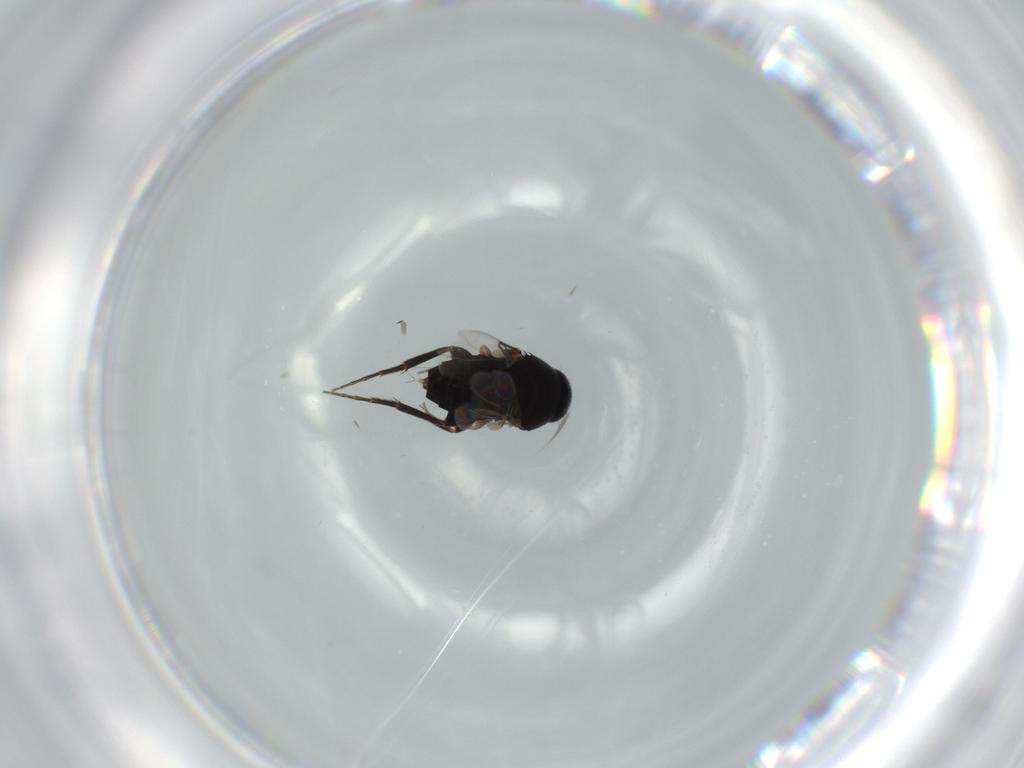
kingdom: Animalia
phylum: Arthropoda
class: Insecta
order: Diptera
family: Phoridae
